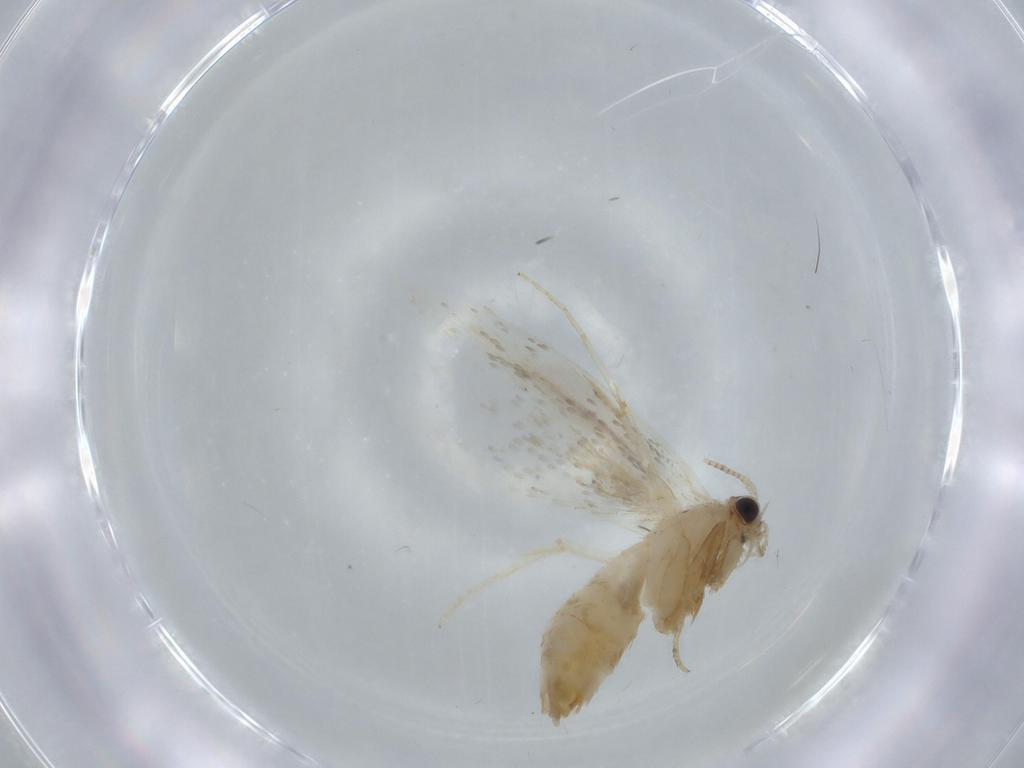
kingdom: Animalia
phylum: Arthropoda
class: Insecta
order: Lepidoptera
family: Tineidae
